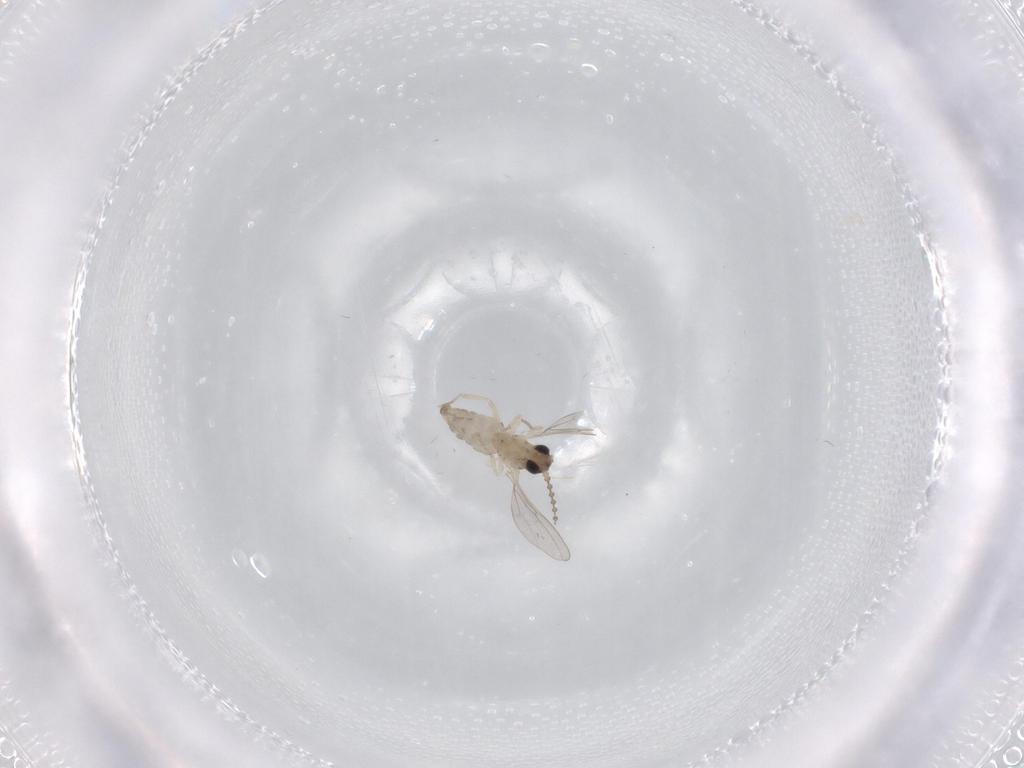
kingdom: Animalia
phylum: Arthropoda
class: Insecta
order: Diptera
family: Cecidomyiidae
